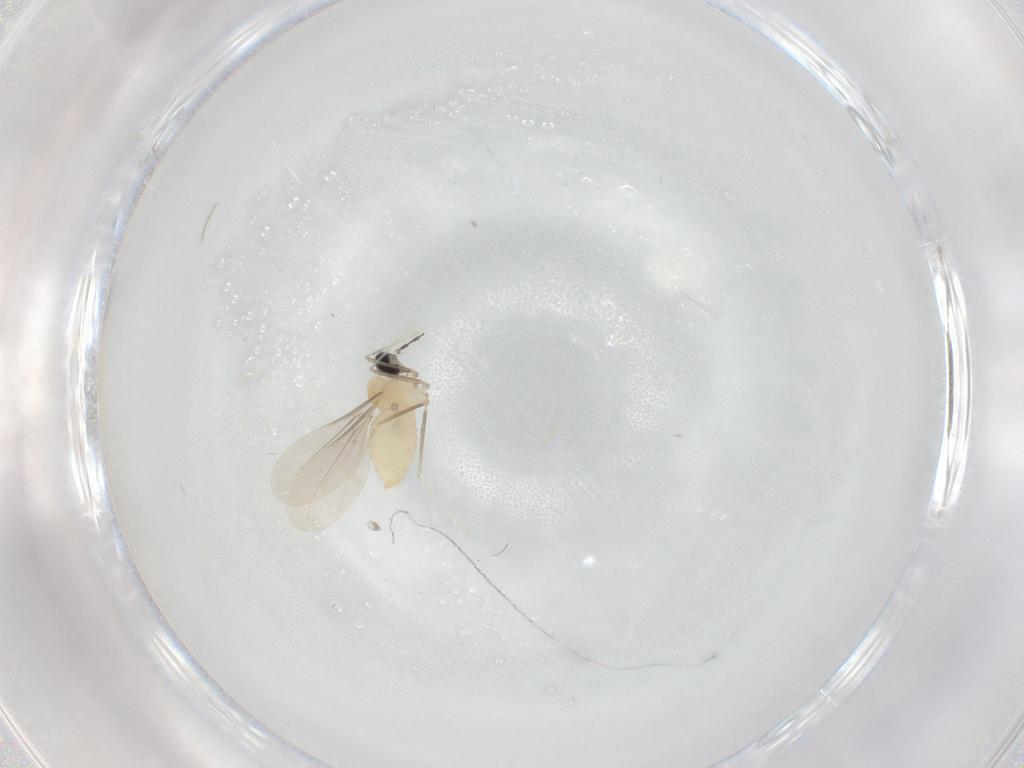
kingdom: Animalia
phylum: Arthropoda
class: Insecta
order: Diptera
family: Cecidomyiidae
